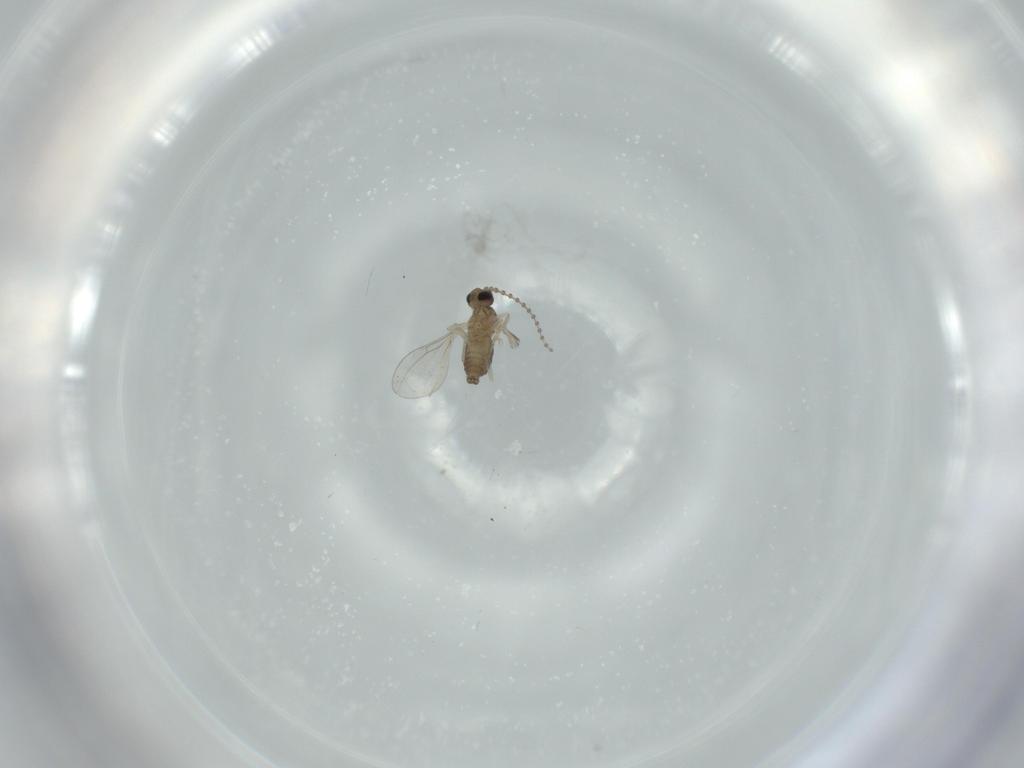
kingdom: Animalia
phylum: Arthropoda
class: Insecta
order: Diptera
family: Cecidomyiidae
